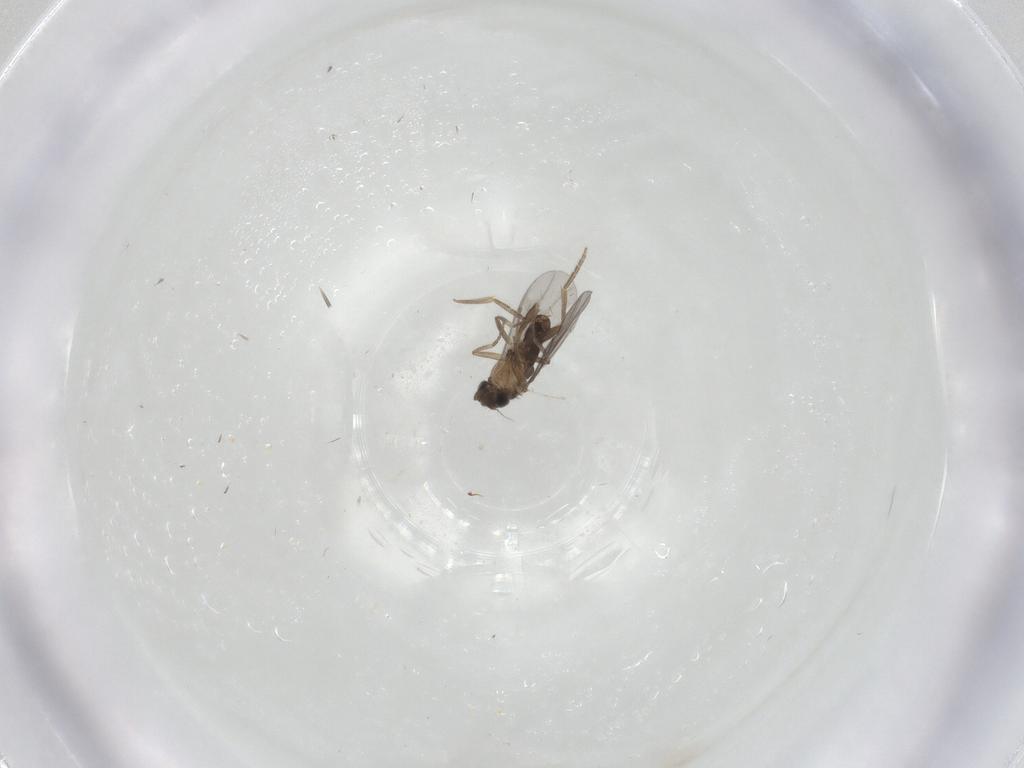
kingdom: Animalia
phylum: Arthropoda
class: Insecta
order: Diptera
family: Cecidomyiidae
